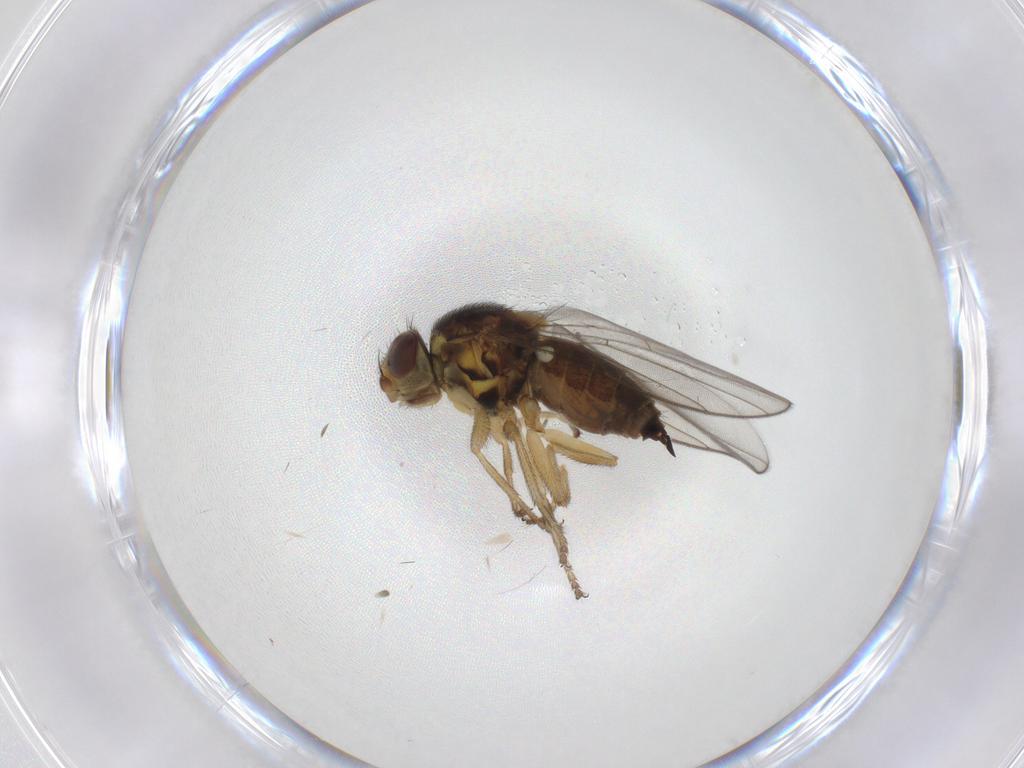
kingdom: Animalia
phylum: Arthropoda
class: Insecta
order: Diptera
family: Chloropidae
